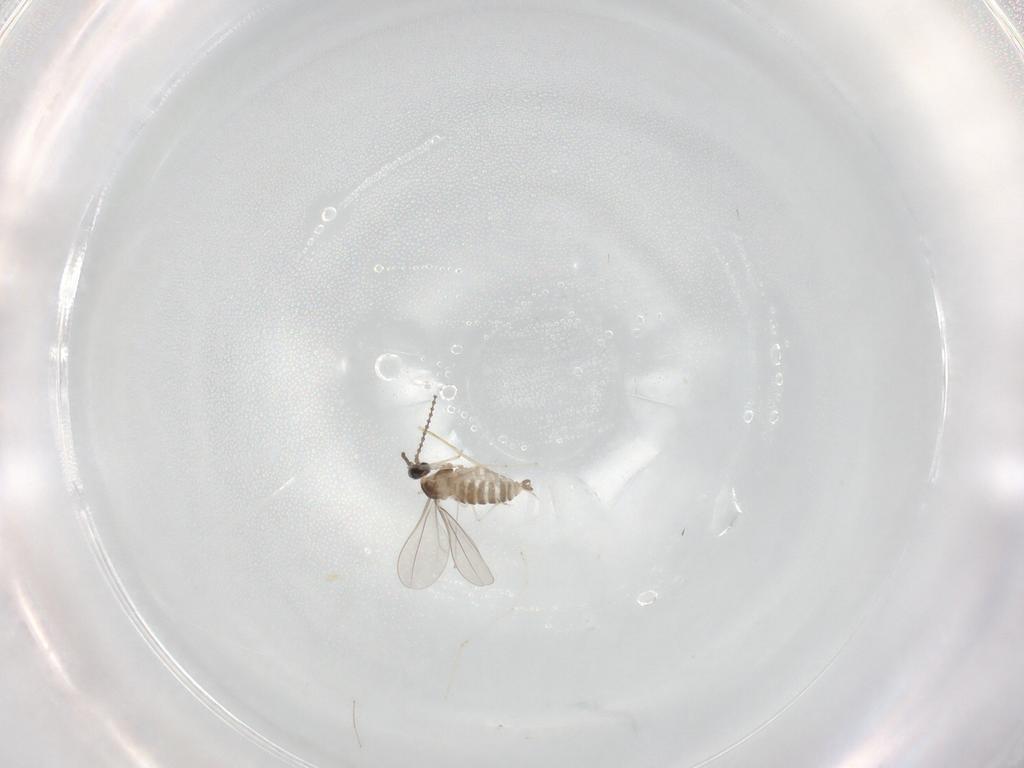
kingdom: Animalia
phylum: Arthropoda
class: Insecta
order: Diptera
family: Cecidomyiidae
